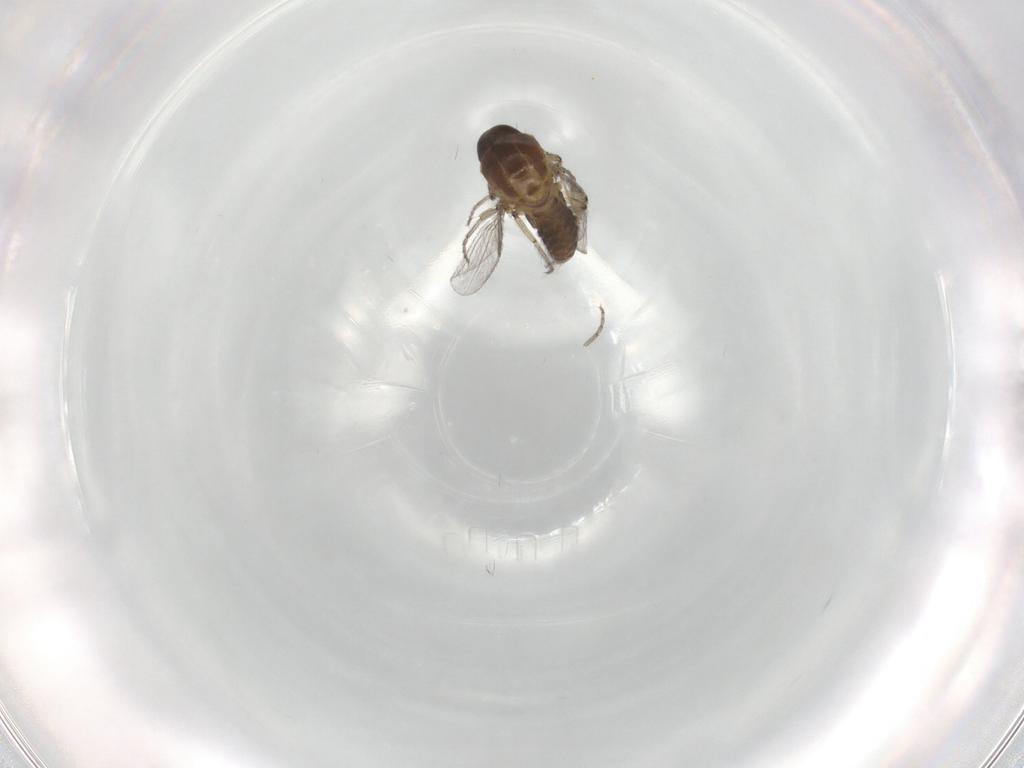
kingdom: Animalia
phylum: Arthropoda
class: Insecta
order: Diptera
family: Ceratopogonidae
